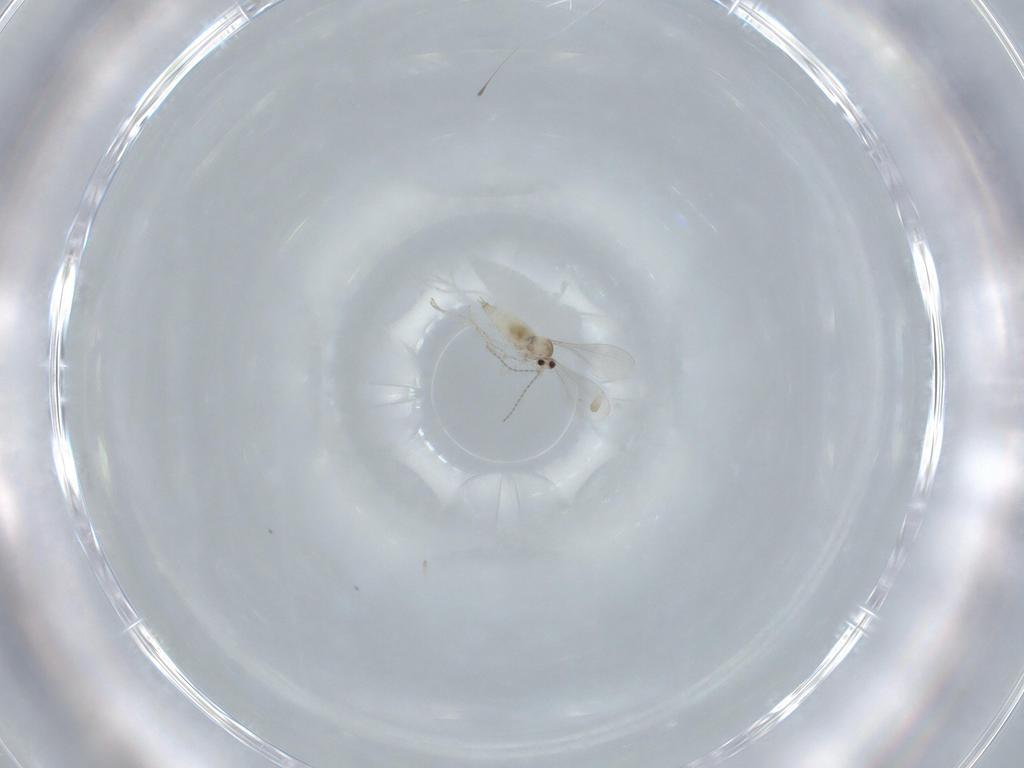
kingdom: Animalia
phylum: Arthropoda
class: Insecta
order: Diptera
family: Cecidomyiidae
